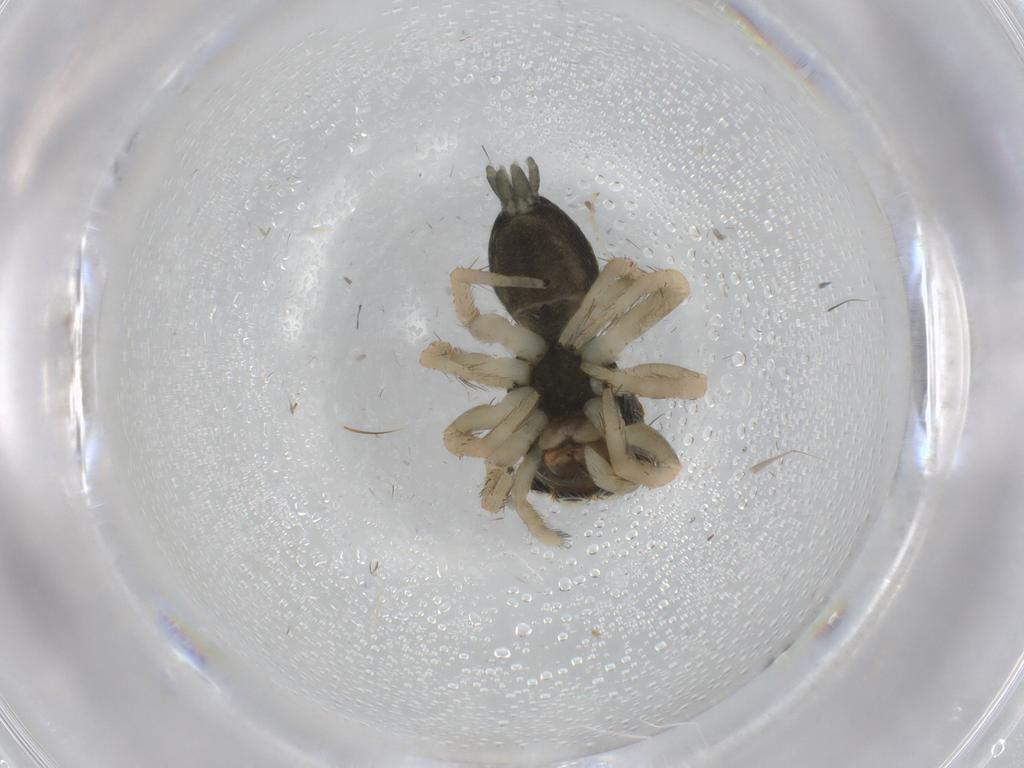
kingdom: Animalia
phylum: Arthropoda
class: Arachnida
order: Araneae
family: Salticidae
